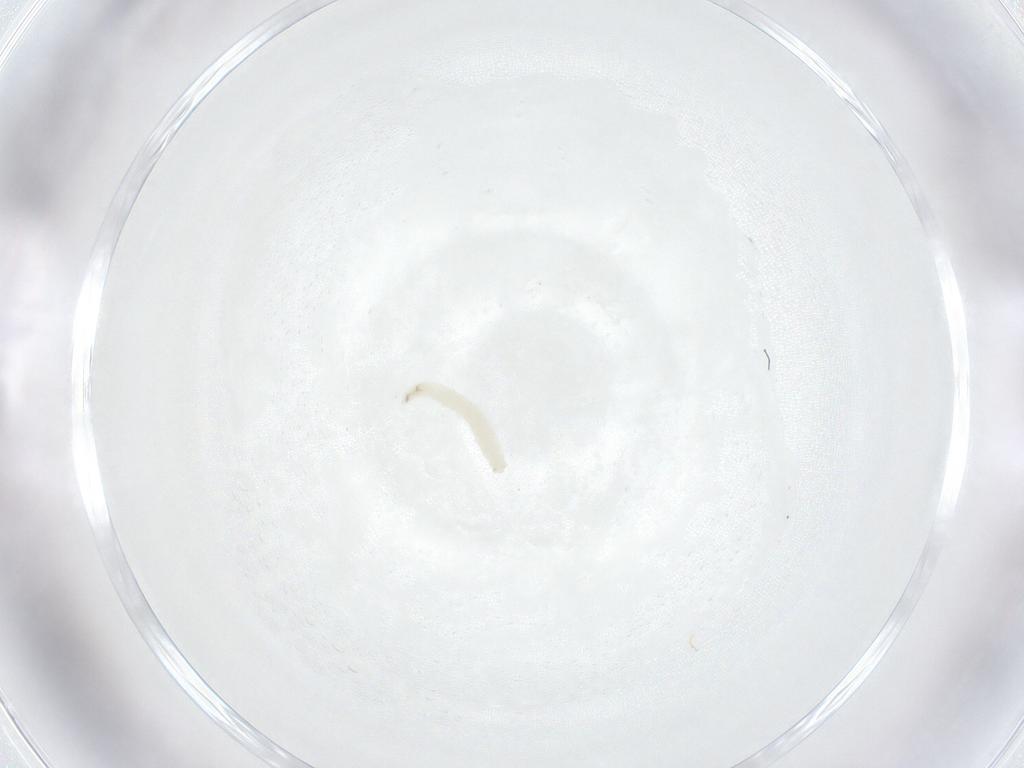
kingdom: Animalia
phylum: Arthropoda
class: Insecta
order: Diptera
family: Sarcophagidae
